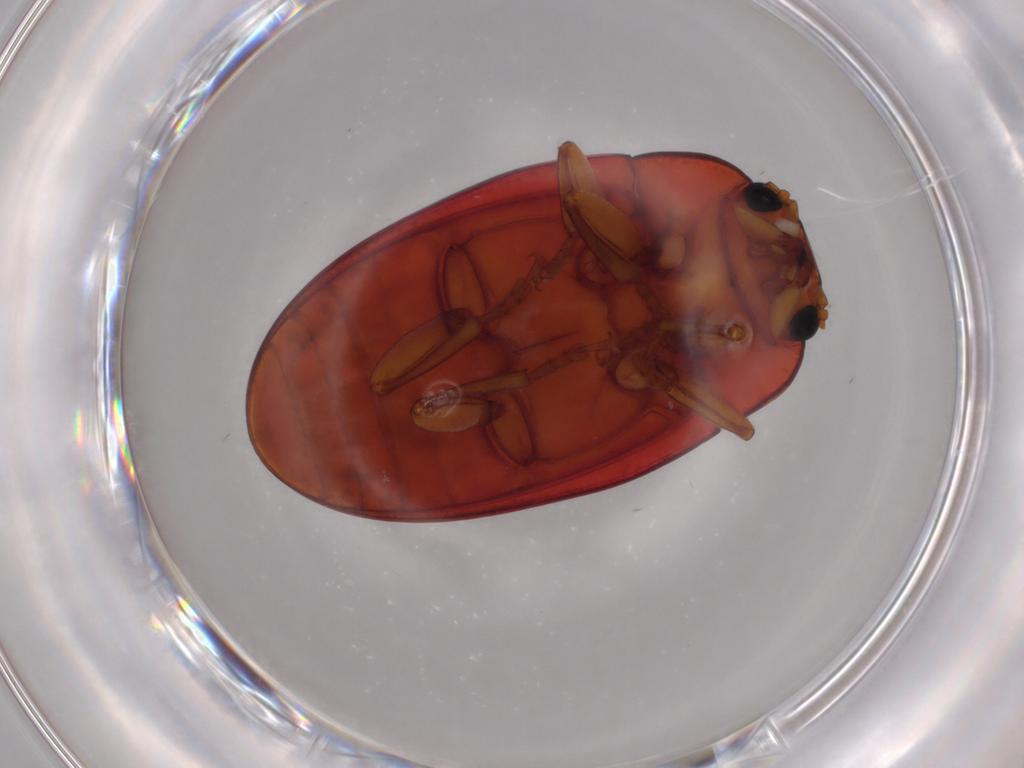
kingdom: Animalia
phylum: Arthropoda
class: Insecta
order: Coleoptera
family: Erotylidae
